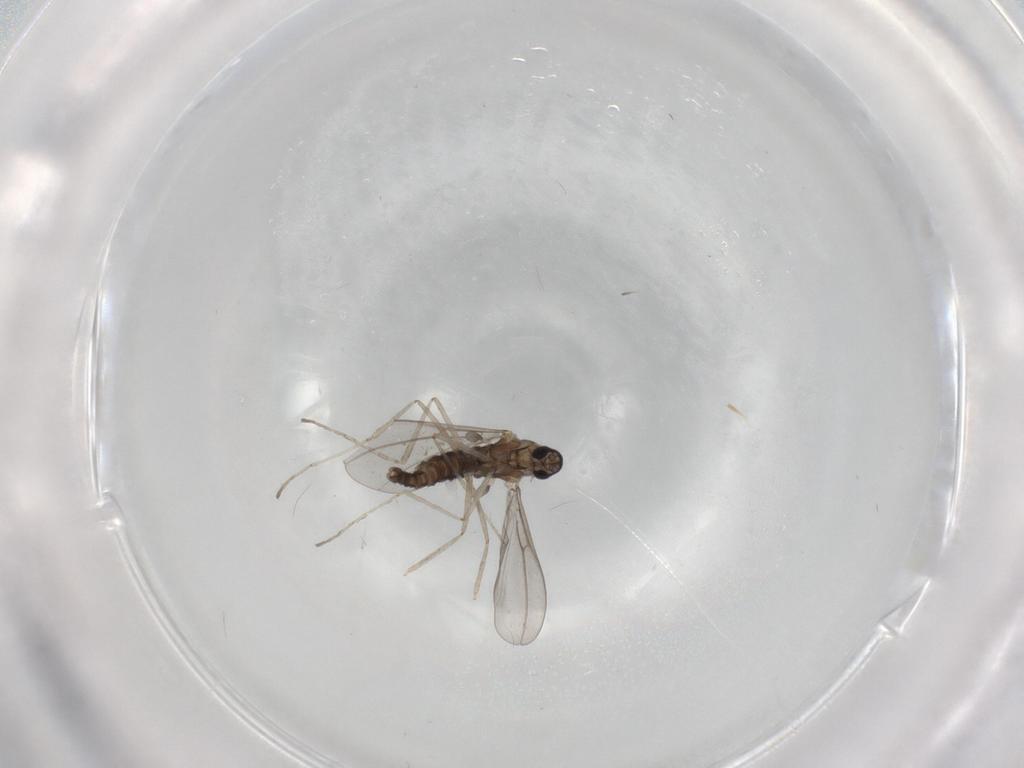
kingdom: Animalia
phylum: Arthropoda
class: Insecta
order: Diptera
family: Cecidomyiidae
